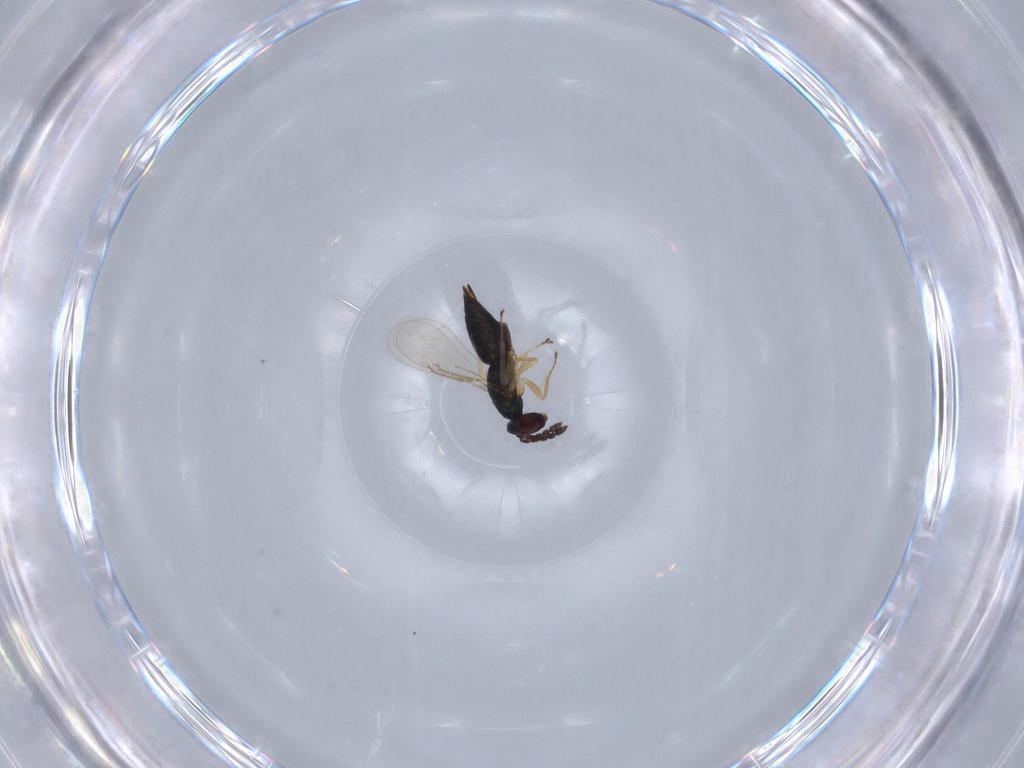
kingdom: Animalia
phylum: Arthropoda
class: Insecta
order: Hymenoptera
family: Eulophidae
